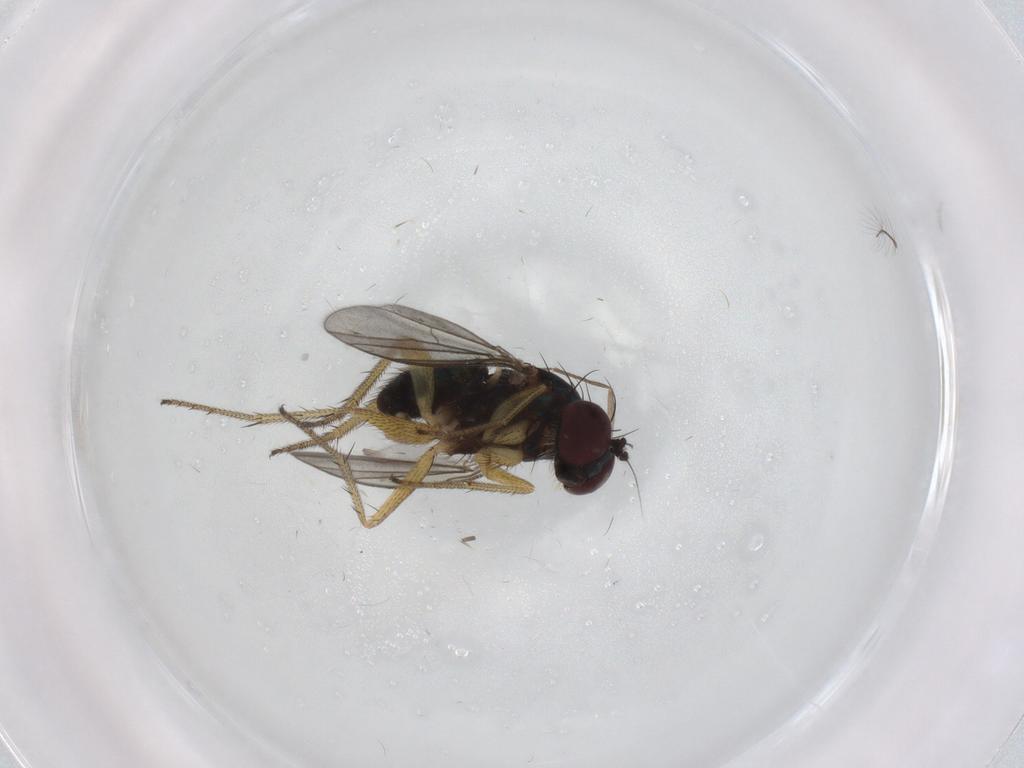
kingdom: Animalia
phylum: Arthropoda
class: Insecta
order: Diptera
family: Chironomidae
